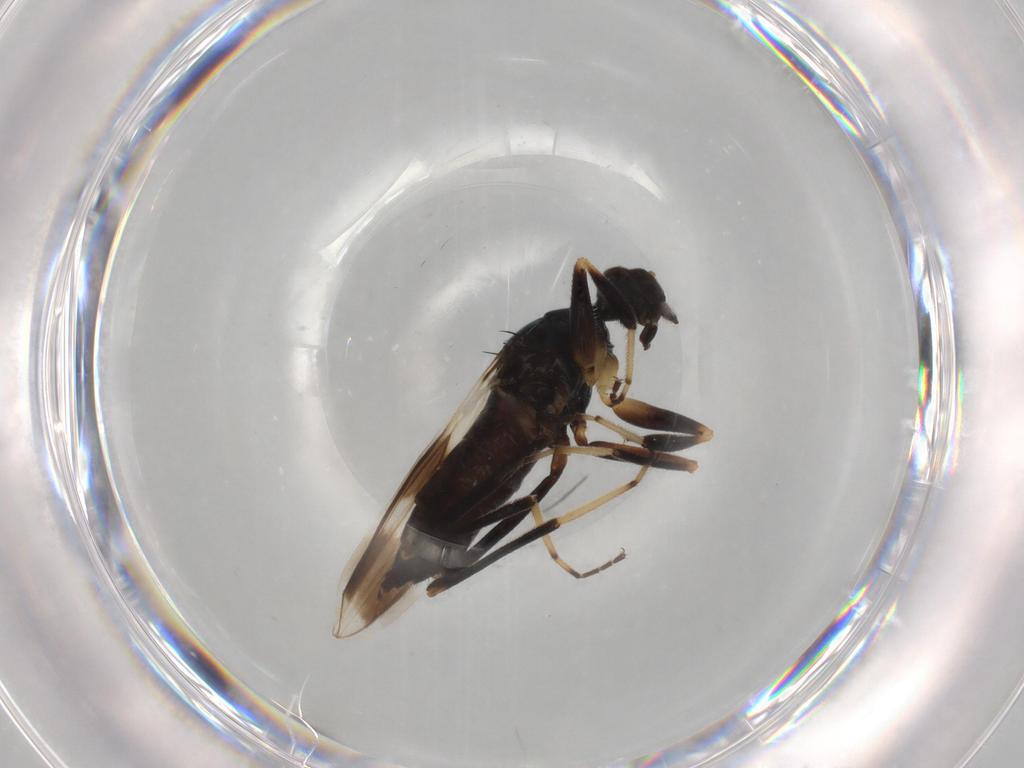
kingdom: Animalia
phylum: Arthropoda
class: Insecta
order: Diptera
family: Hybotidae
